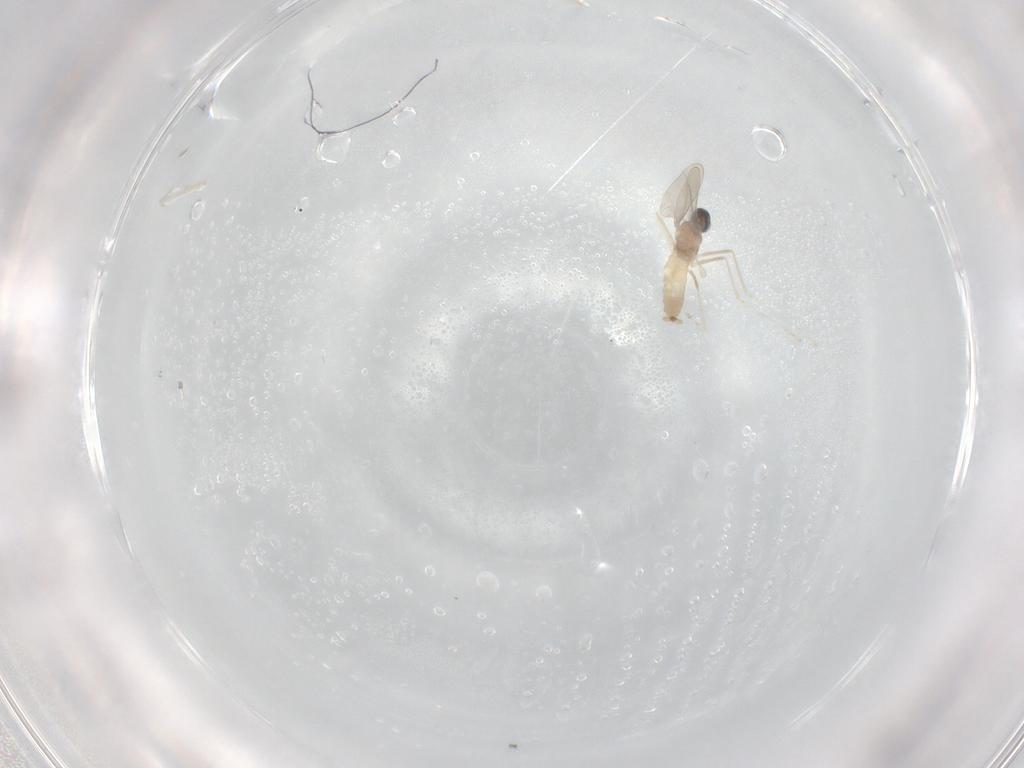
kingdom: Animalia
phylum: Arthropoda
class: Insecta
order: Diptera
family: Cecidomyiidae
